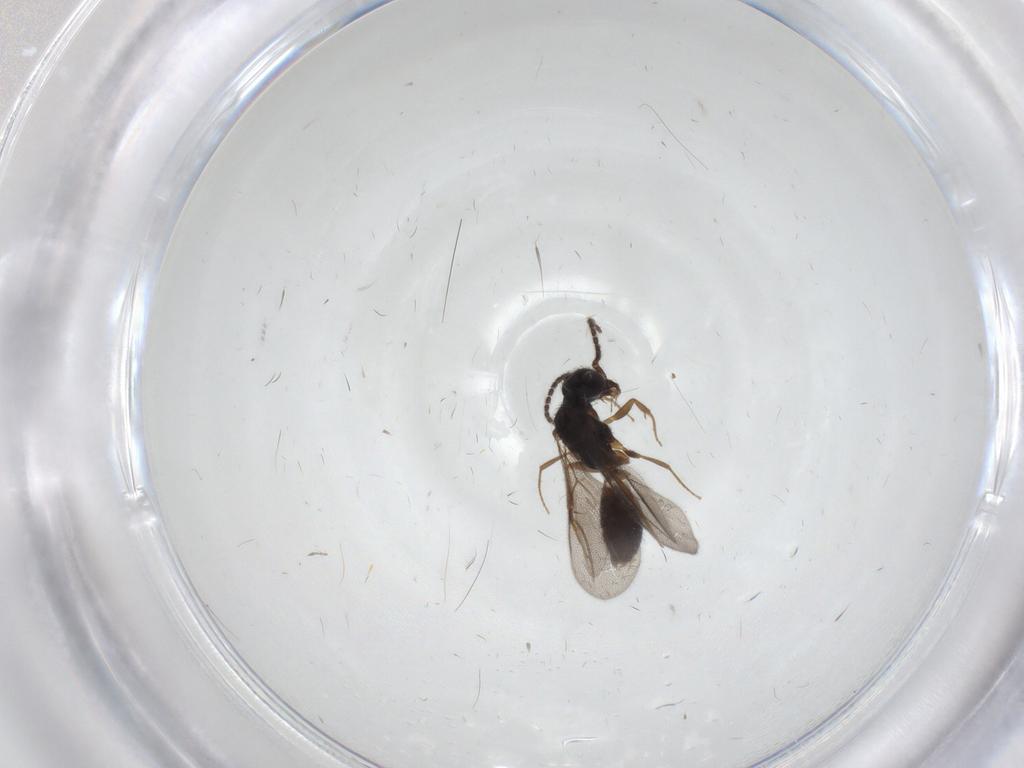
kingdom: Animalia
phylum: Arthropoda
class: Insecta
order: Hymenoptera
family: Bethylidae
